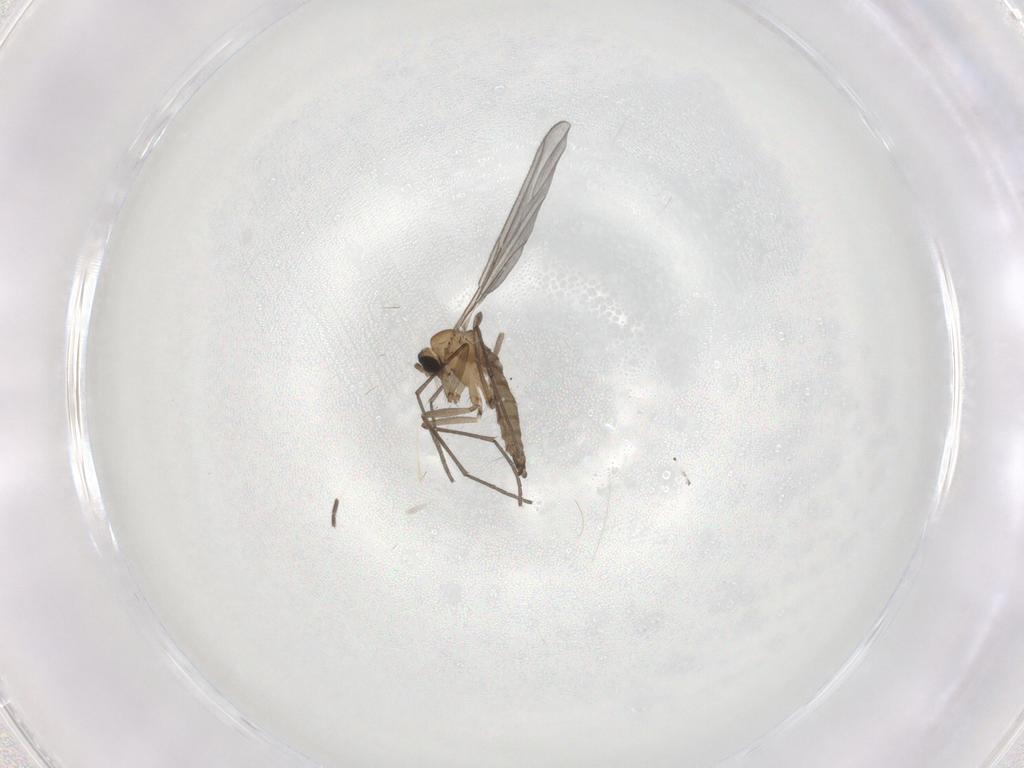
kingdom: Animalia
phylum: Arthropoda
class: Insecta
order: Diptera
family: Sciaridae
